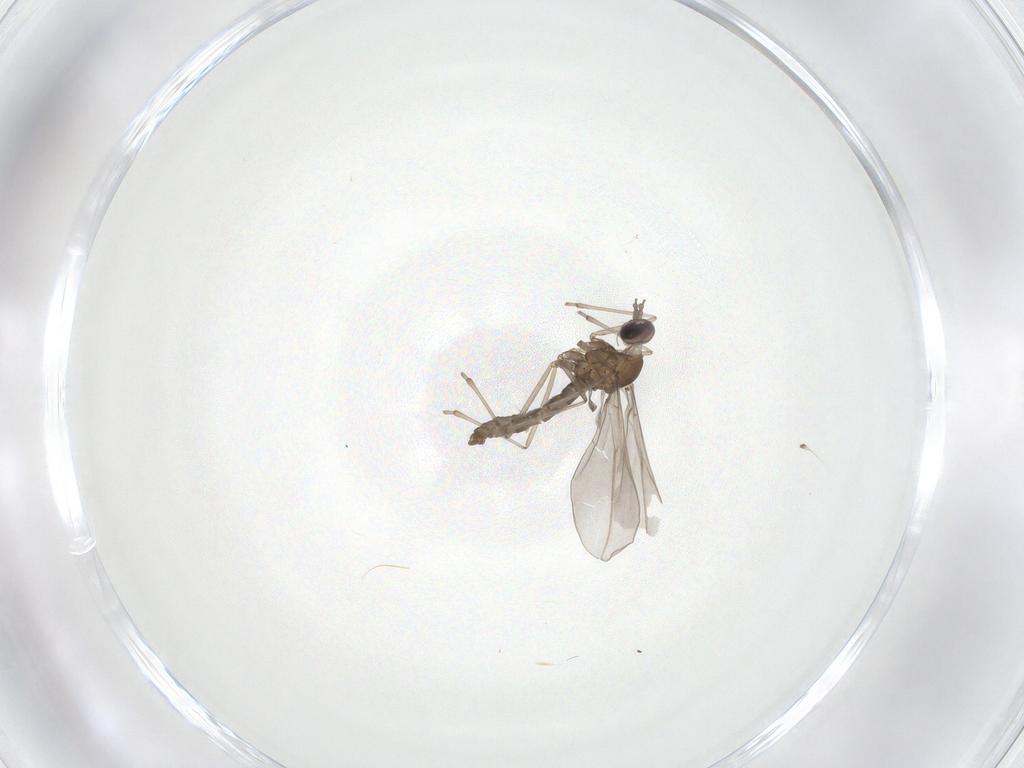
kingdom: Animalia
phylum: Arthropoda
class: Insecta
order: Diptera
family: Sciaridae
